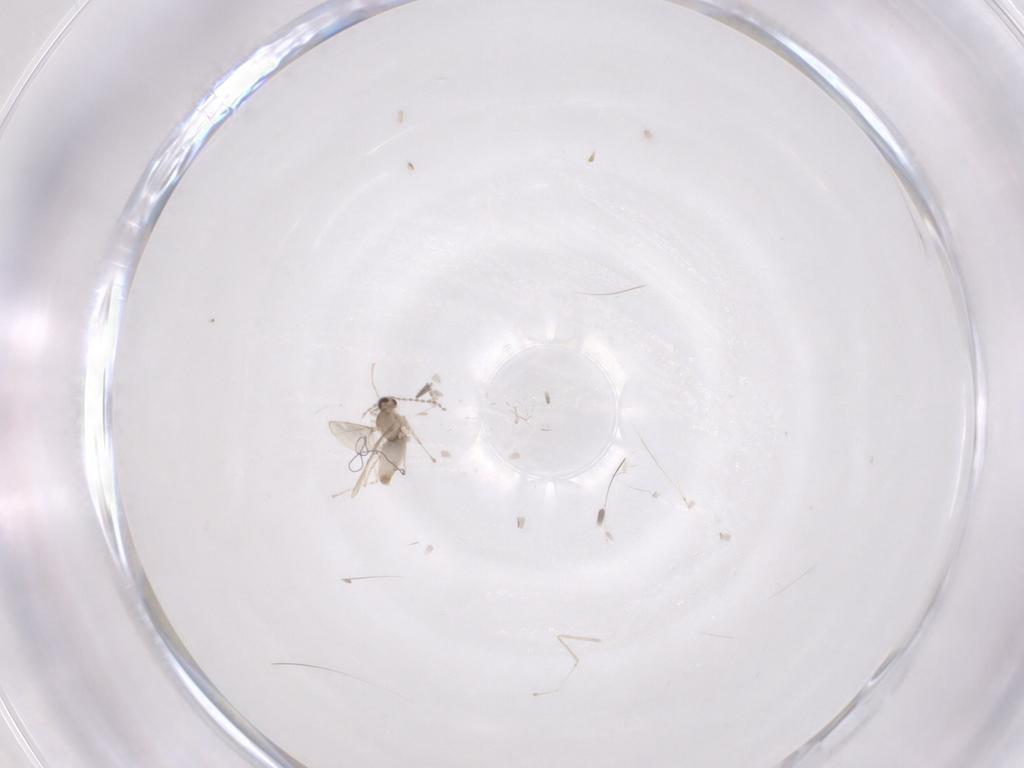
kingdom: Animalia
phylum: Arthropoda
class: Insecta
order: Diptera
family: Cecidomyiidae
